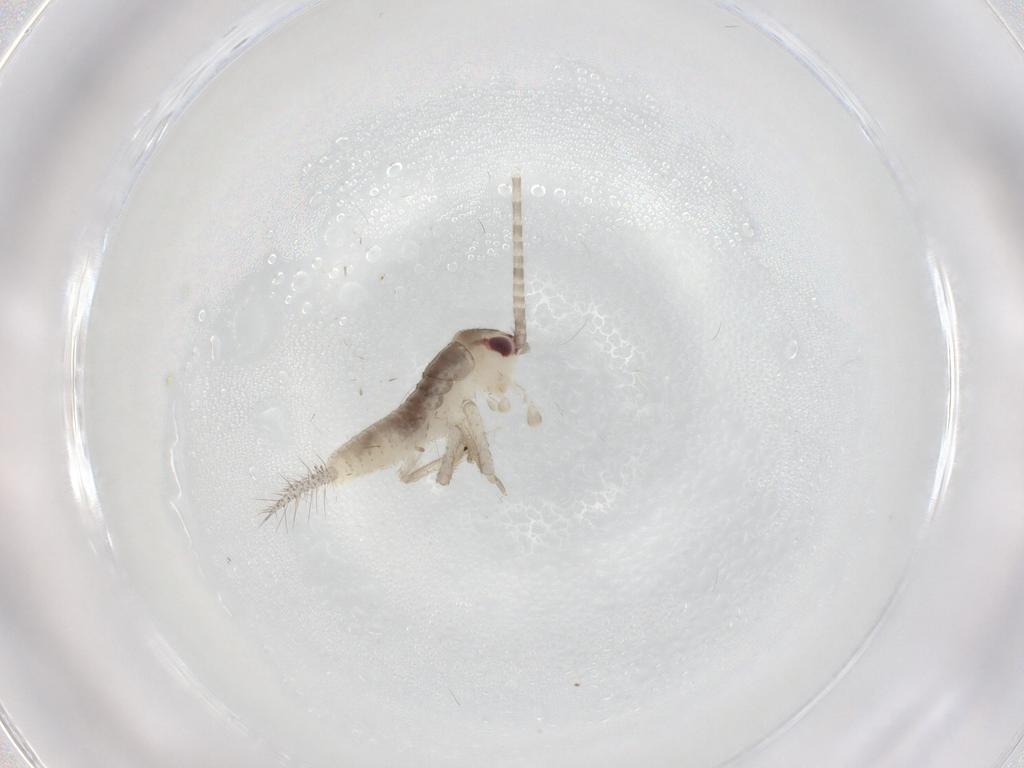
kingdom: Animalia
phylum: Arthropoda
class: Insecta
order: Orthoptera
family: Gryllidae
